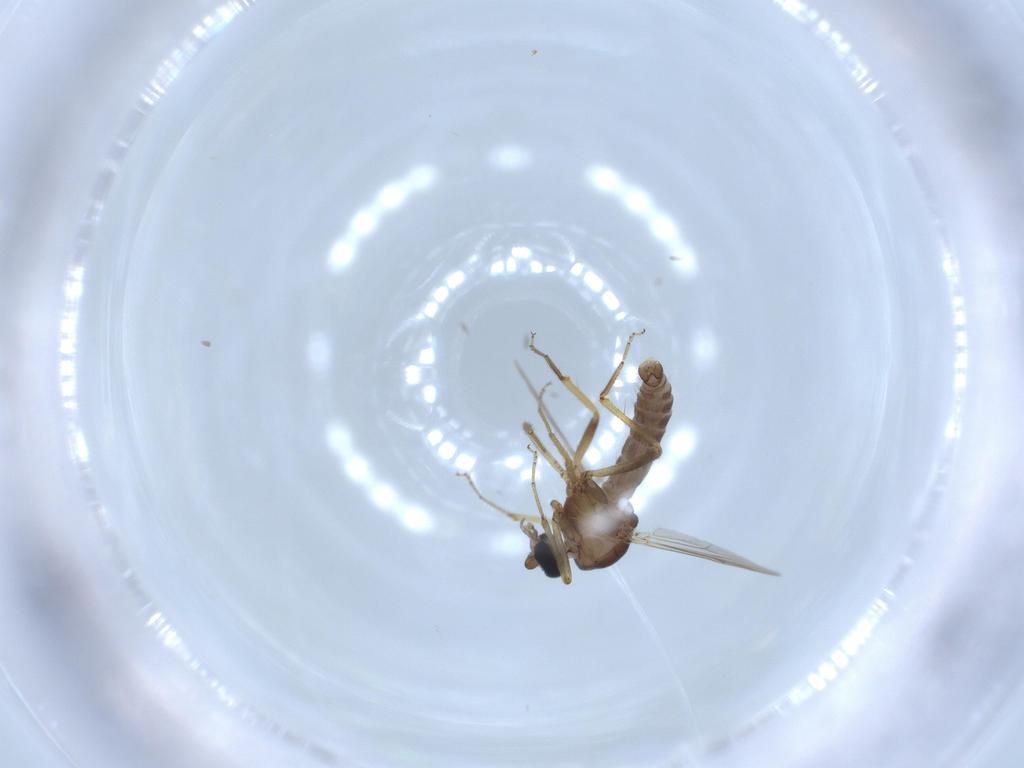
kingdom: Animalia
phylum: Arthropoda
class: Insecta
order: Diptera
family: Ceratopogonidae
